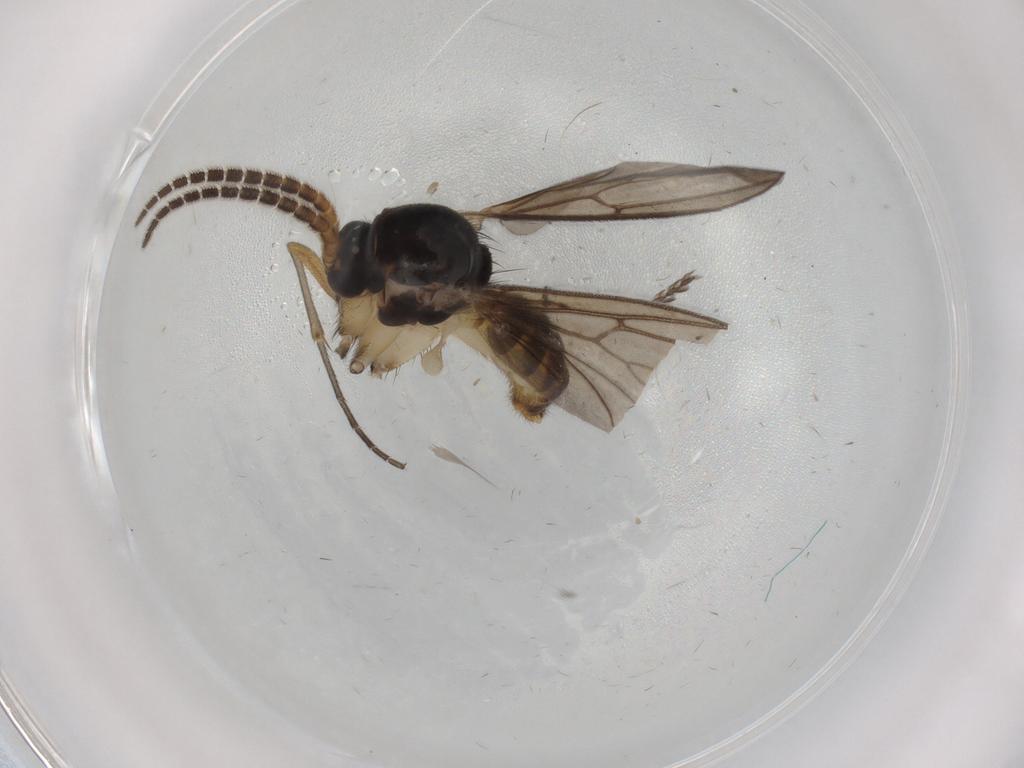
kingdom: Animalia
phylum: Arthropoda
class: Insecta
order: Diptera
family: Cecidomyiidae
